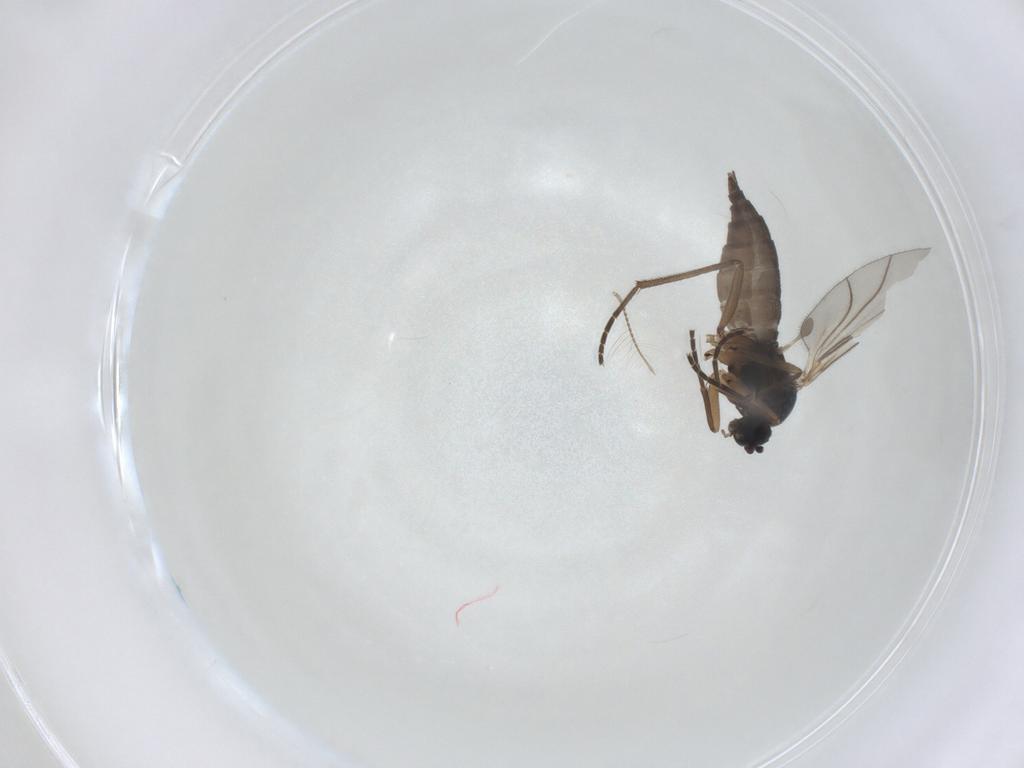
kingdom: Animalia
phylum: Arthropoda
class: Insecta
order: Diptera
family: Sciaridae
